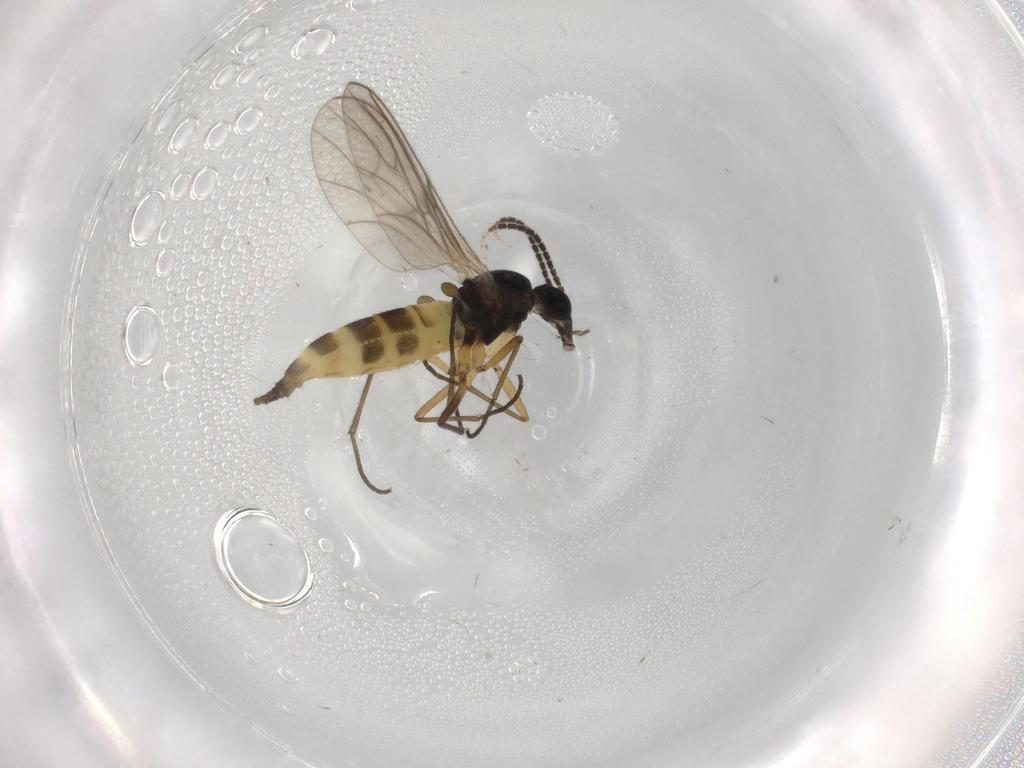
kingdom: Animalia
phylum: Arthropoda
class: Insecta
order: Diptera
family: Sciaridae
